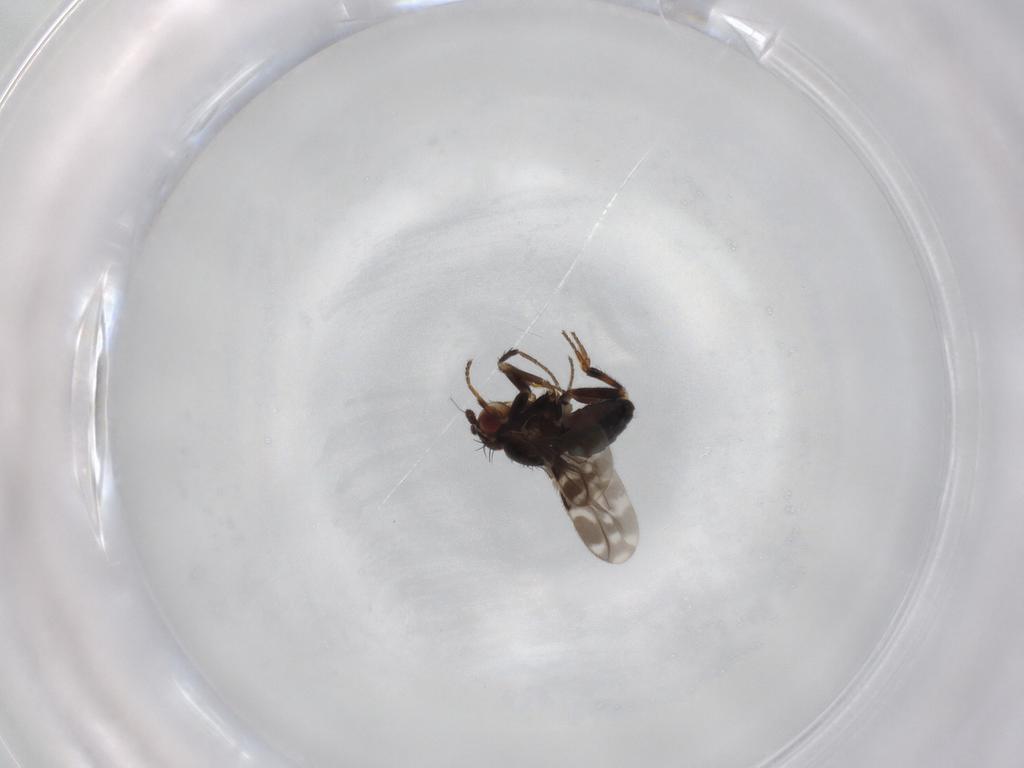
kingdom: Animalia
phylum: Arthropoda
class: Insecta
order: Diptera
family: Sphaeroceridae
